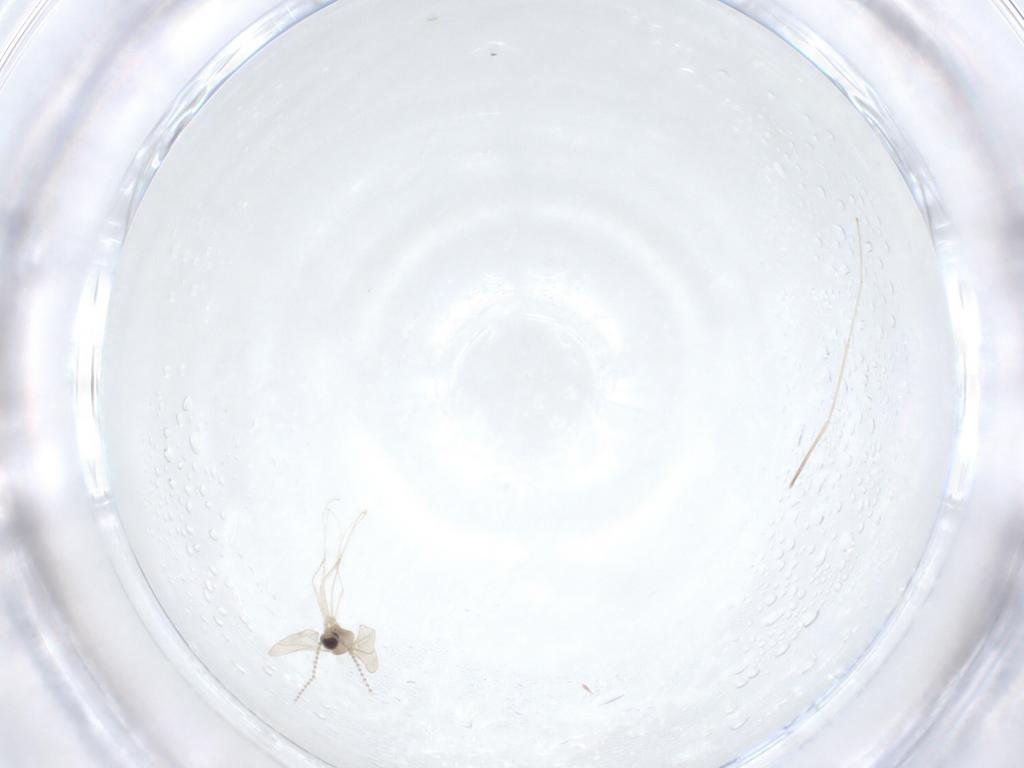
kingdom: Animalia
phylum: Arthropoda
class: Insecta
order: Diptera
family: Cecidomyiidae
